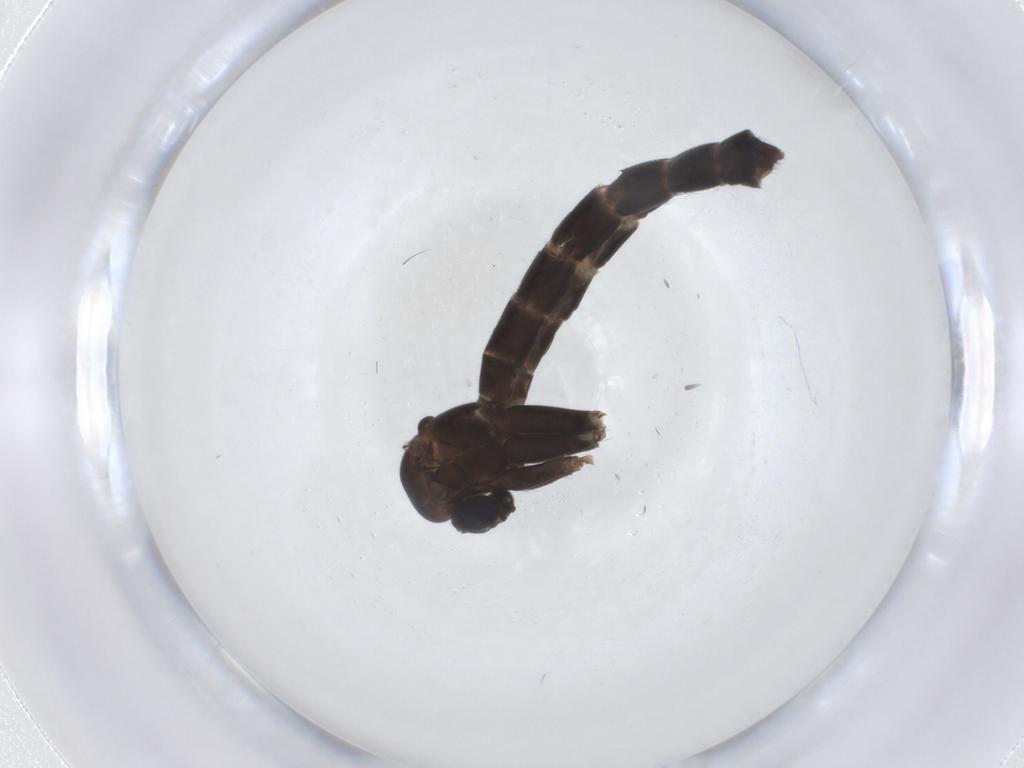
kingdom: Animalia
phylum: Arthropoda
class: Insecta
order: Diptera
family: Ditomyiidae
